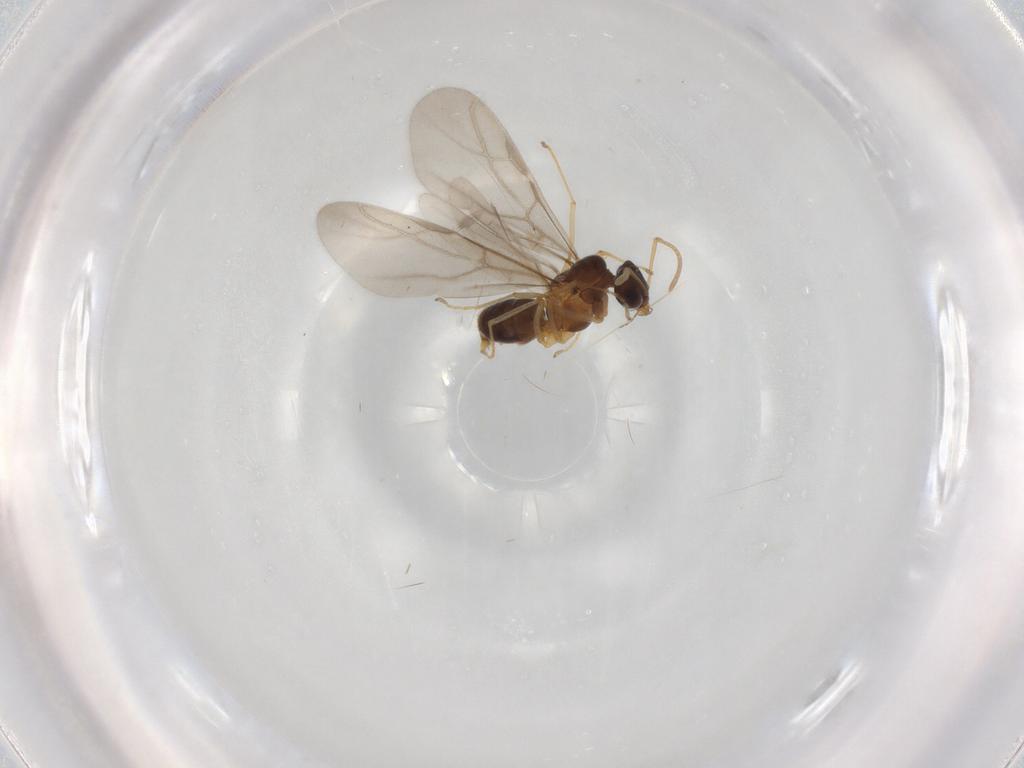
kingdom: Animalia
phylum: Arthropoda
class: Insecta
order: Hymenoptera
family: Formicidae
